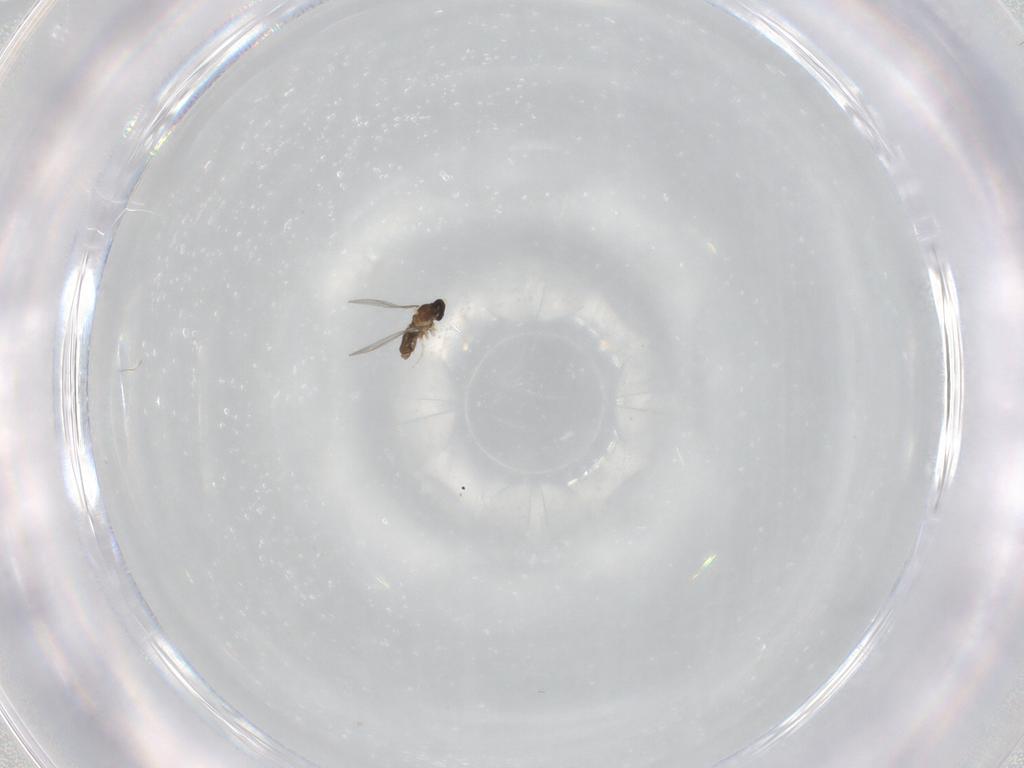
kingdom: Animalia
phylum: Arthropoda
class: Insecta
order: Diptera
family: Cecidomyiidae
